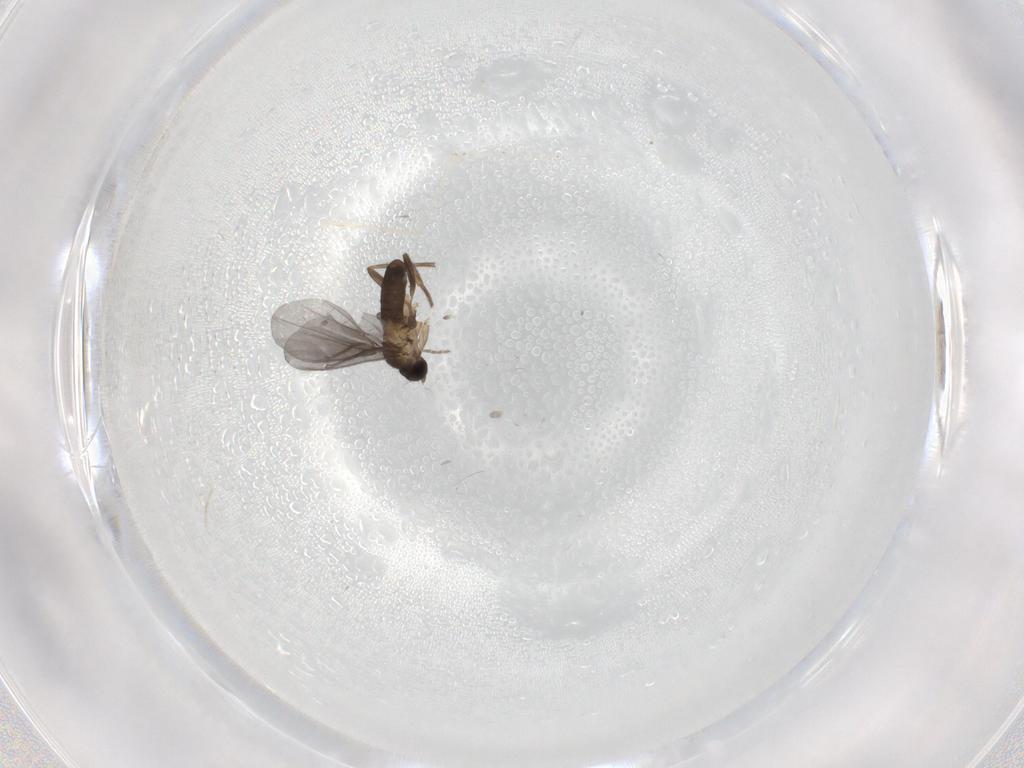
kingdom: Animalia
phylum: Arthropoda
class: Insecta
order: Diptera
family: Phoridae
